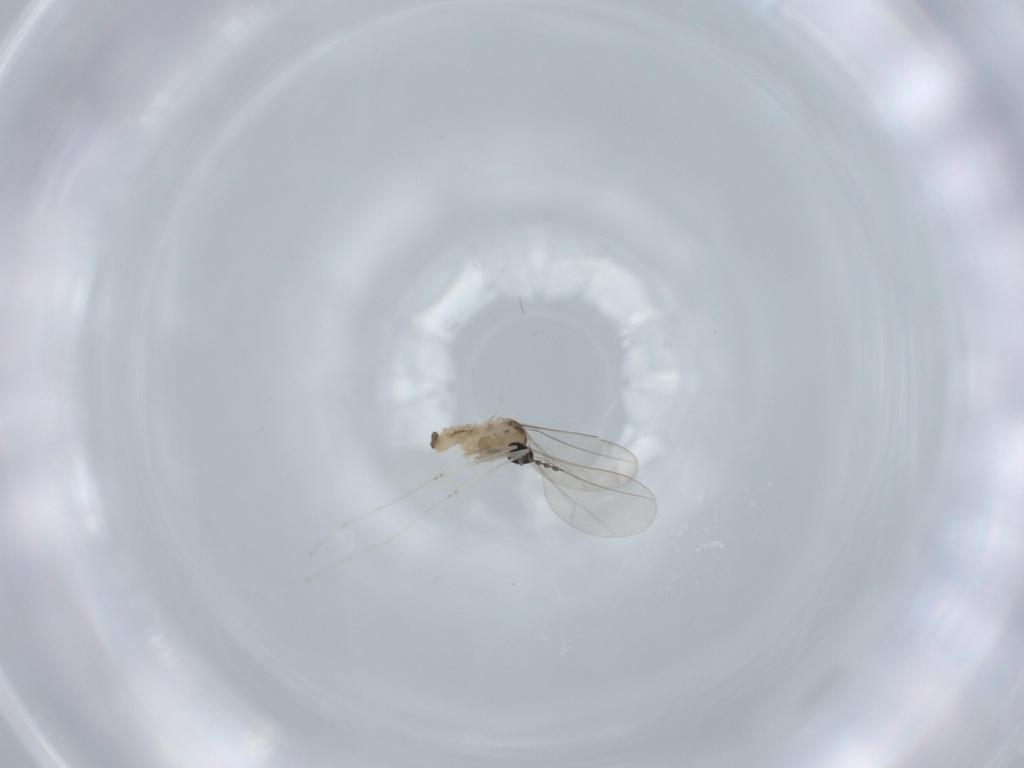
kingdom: Animalia
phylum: Arthropoda
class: Insecta
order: Diptera
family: Cecidomyiidae
